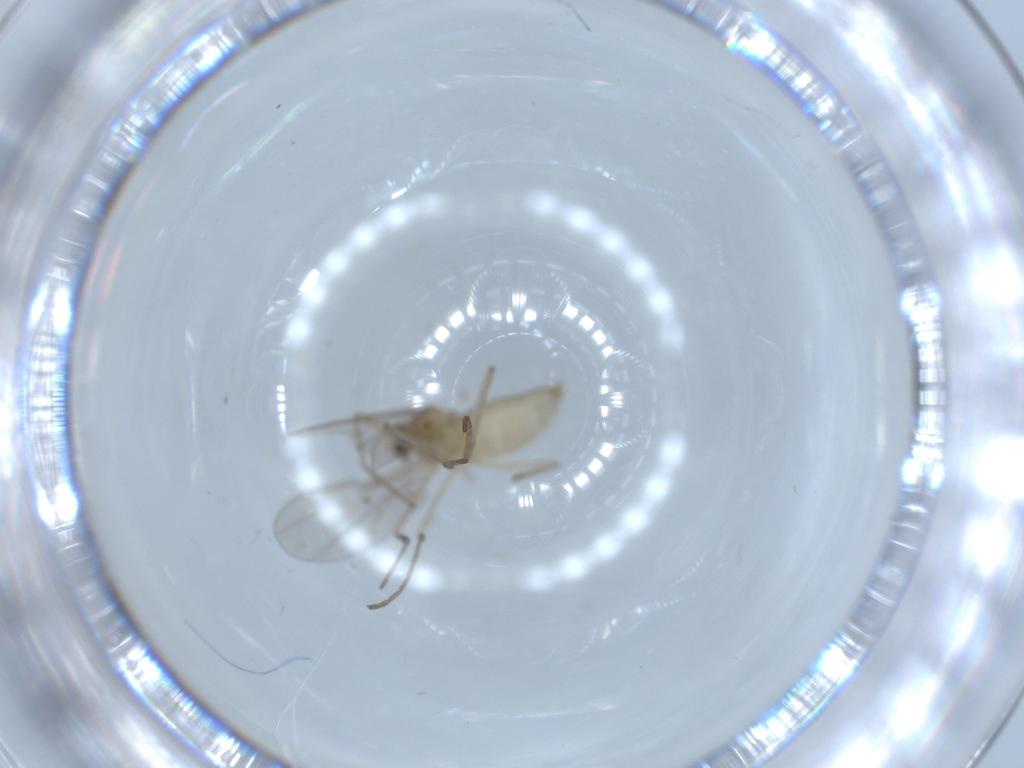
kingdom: Animalia
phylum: Arthropoda
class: Insecta
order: Diptera
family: Cecidomyiidae
